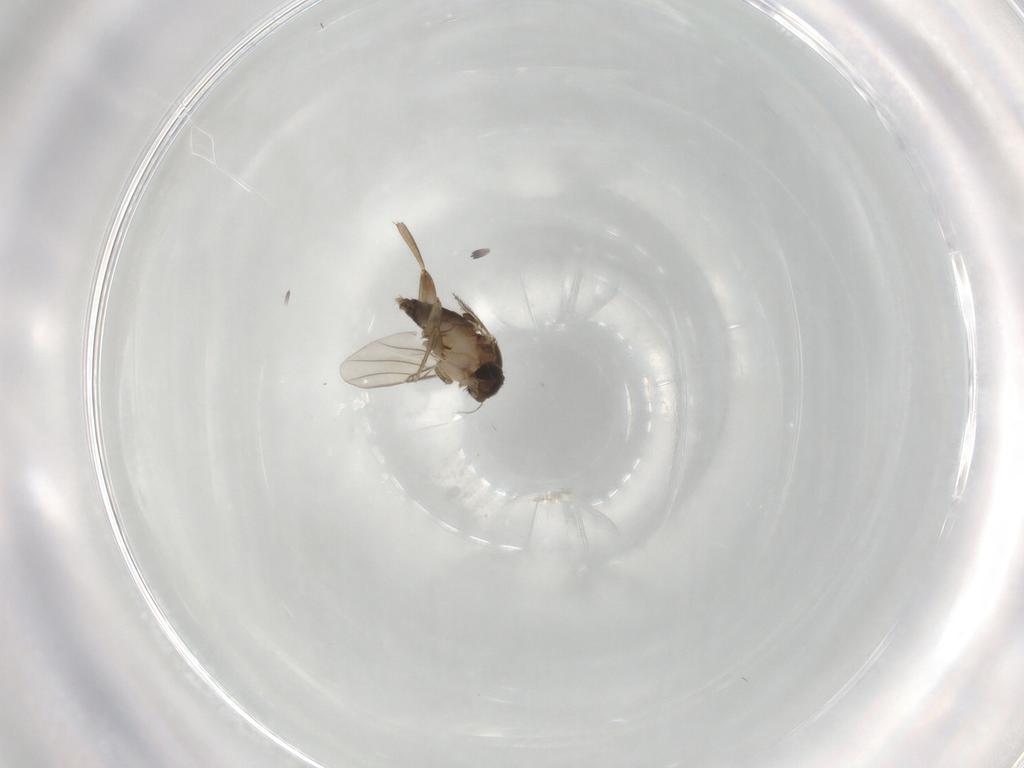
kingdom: Animalia
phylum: Arthropoda
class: Insecta
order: Diptera
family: Phoridae
